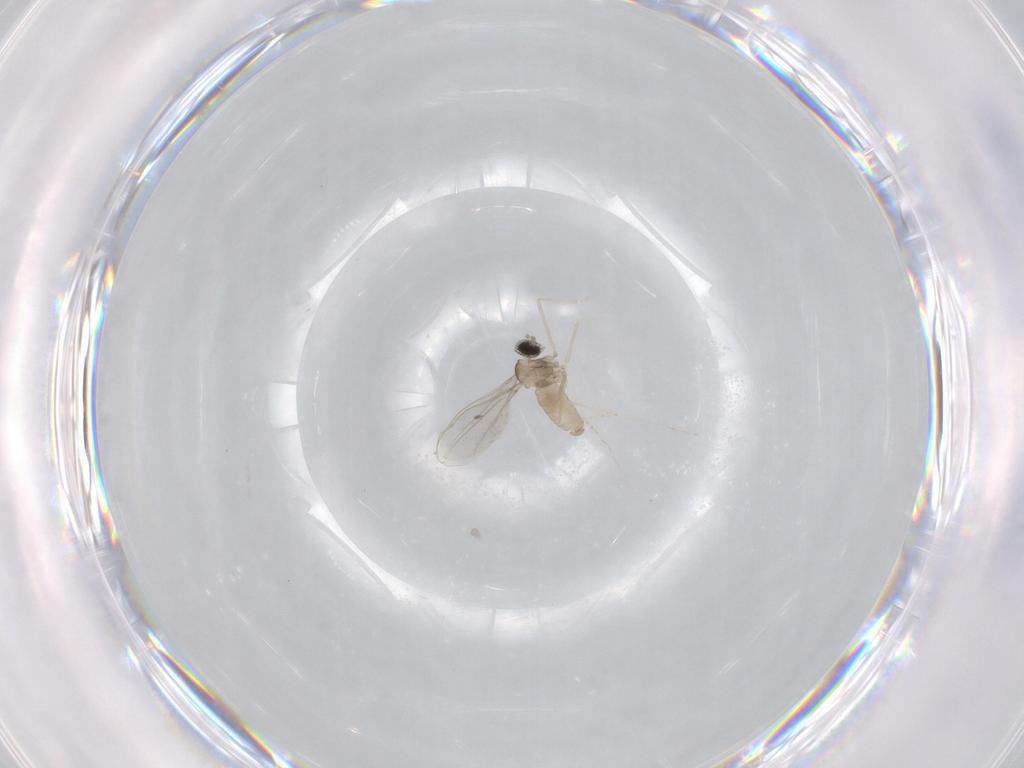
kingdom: Animalia
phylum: Arthropoda
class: Insecta
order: Diptera
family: Cecidomyiidae
